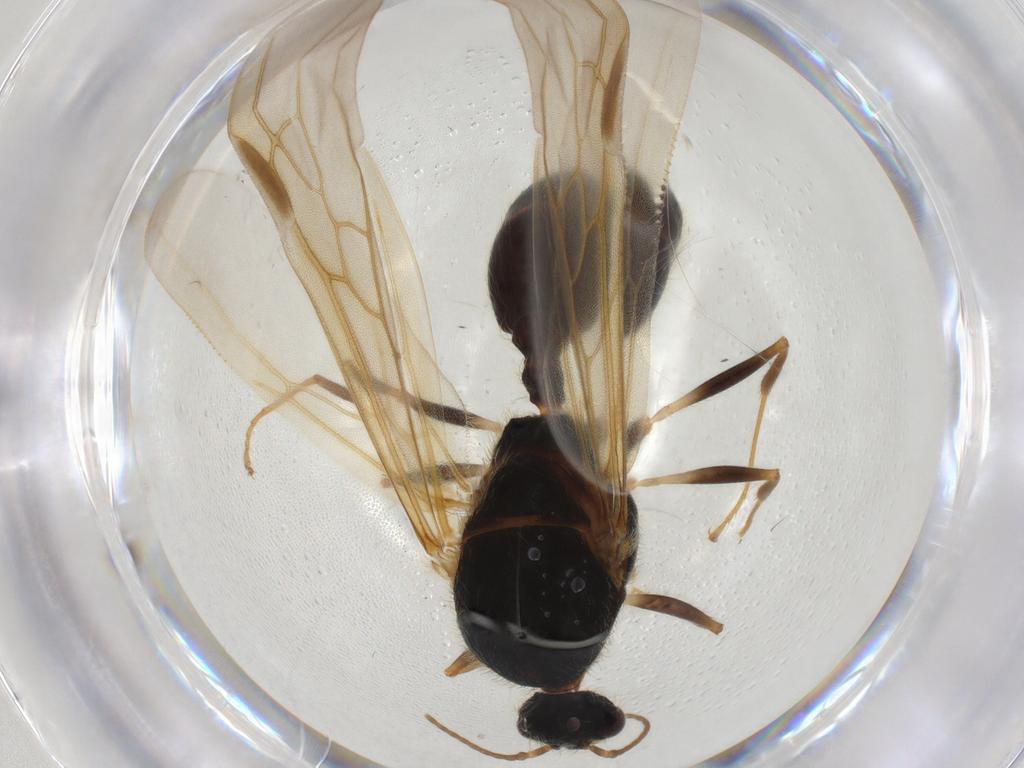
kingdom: Animalia
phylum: Arthropoda
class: Insecta
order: Hymenoptera
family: Formicidae
